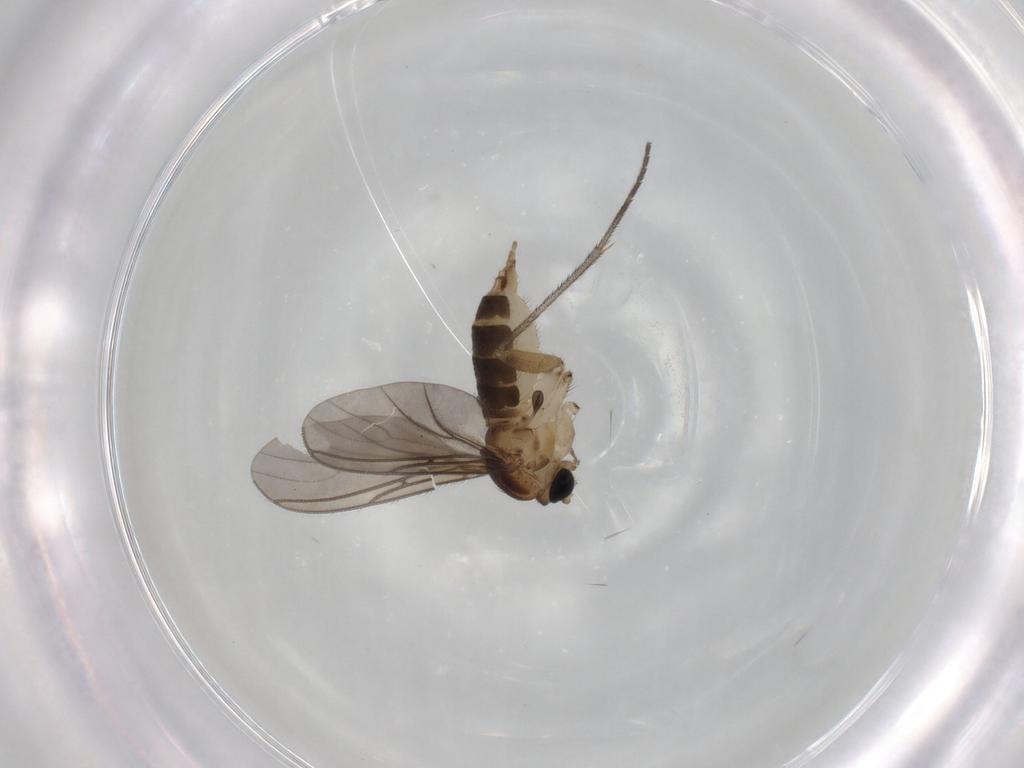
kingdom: Animalia
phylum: Arthropoda
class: Insecta
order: Diptera
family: Sciaridae
